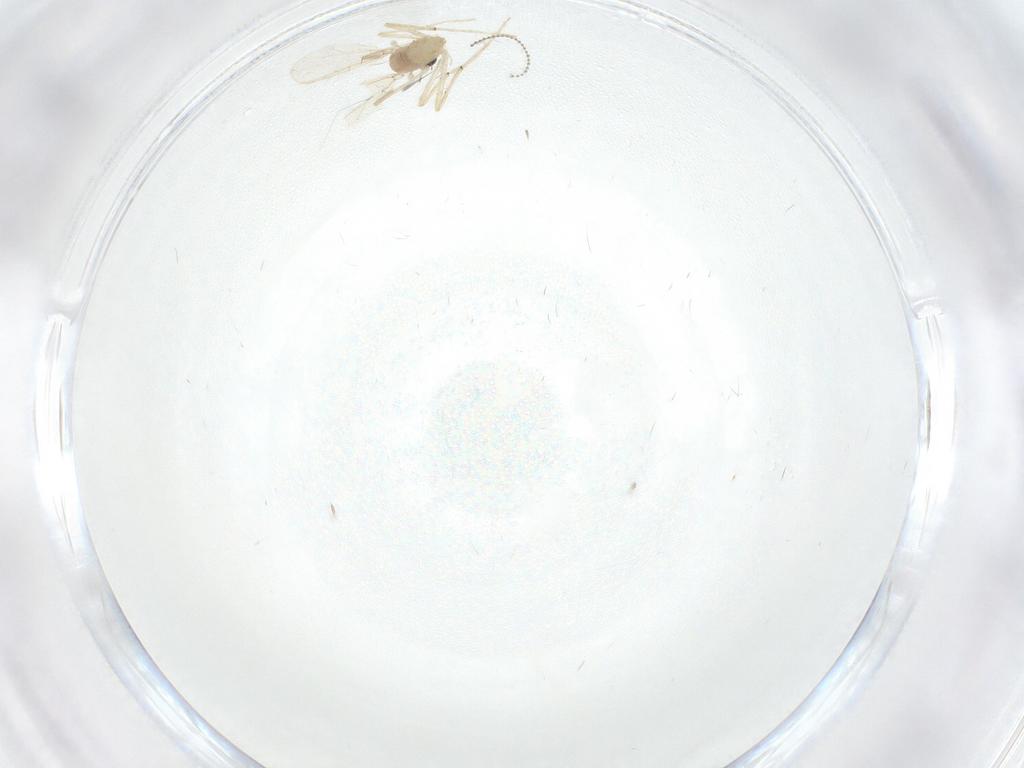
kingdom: Animalia
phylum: Arthropoda
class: Insecta
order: Diptera
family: Chironomidae
